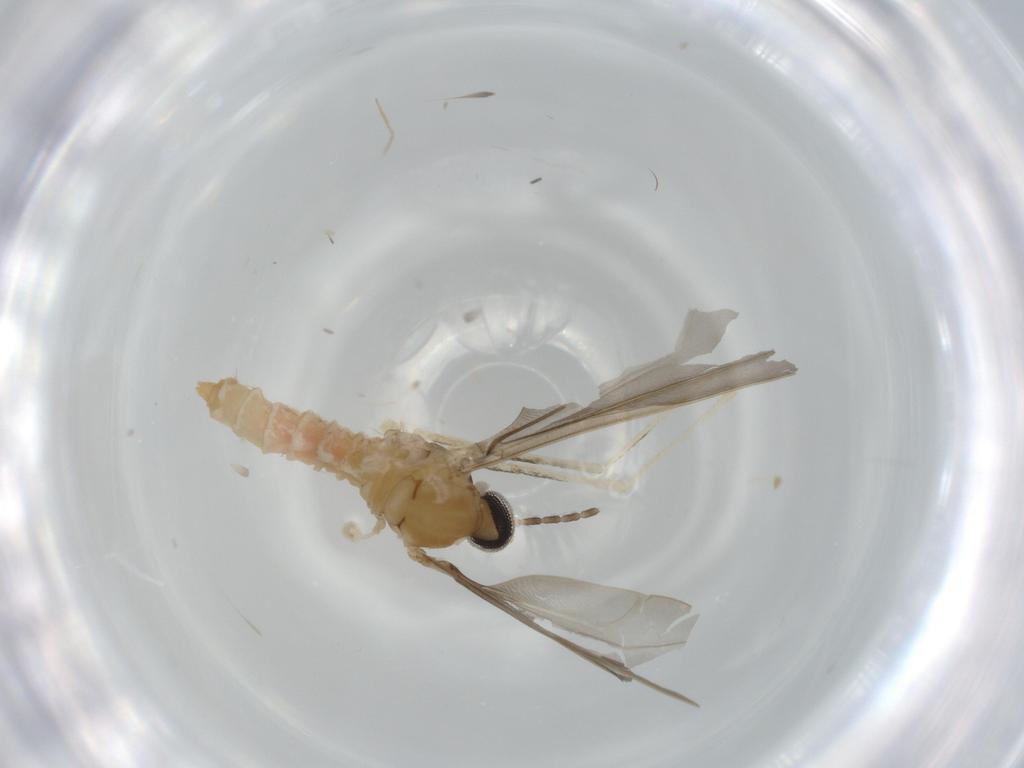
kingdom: Animalia
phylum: Arthropoda
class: Insecta
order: Diptera
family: Cecidomyiidae
